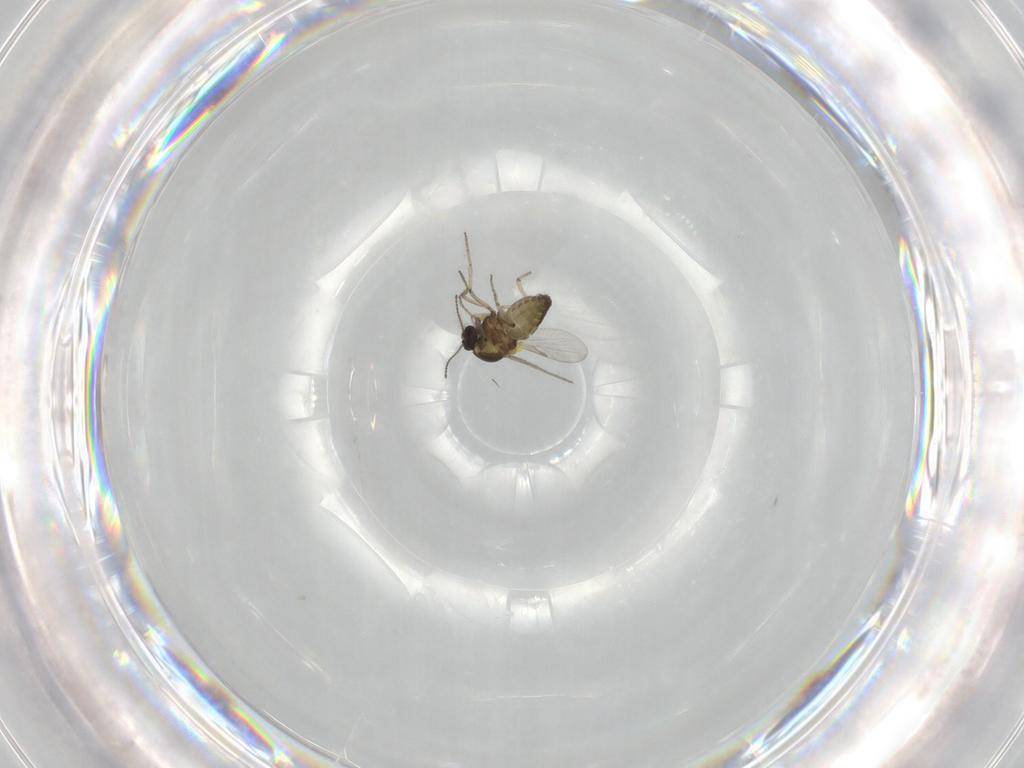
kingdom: Animalia
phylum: Arthropoda
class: Insecta
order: Diptera
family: Ceratopogonidae
